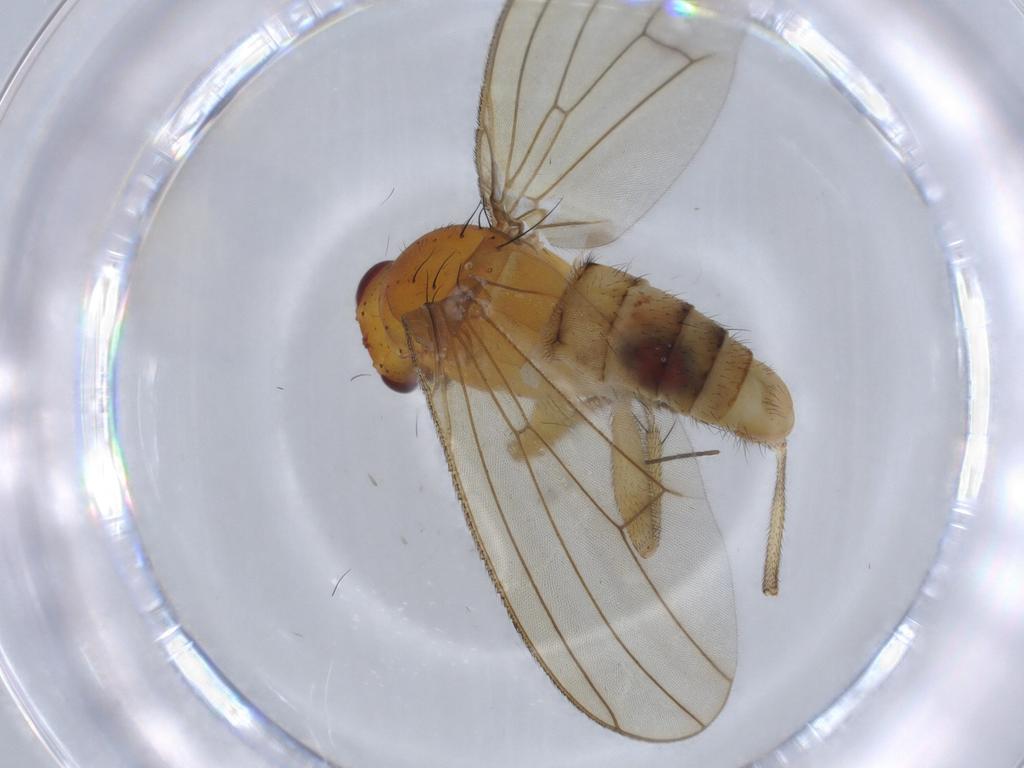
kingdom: Animalia
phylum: Arthropoda
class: Insecta
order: Diptera
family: Heleomyzidae
